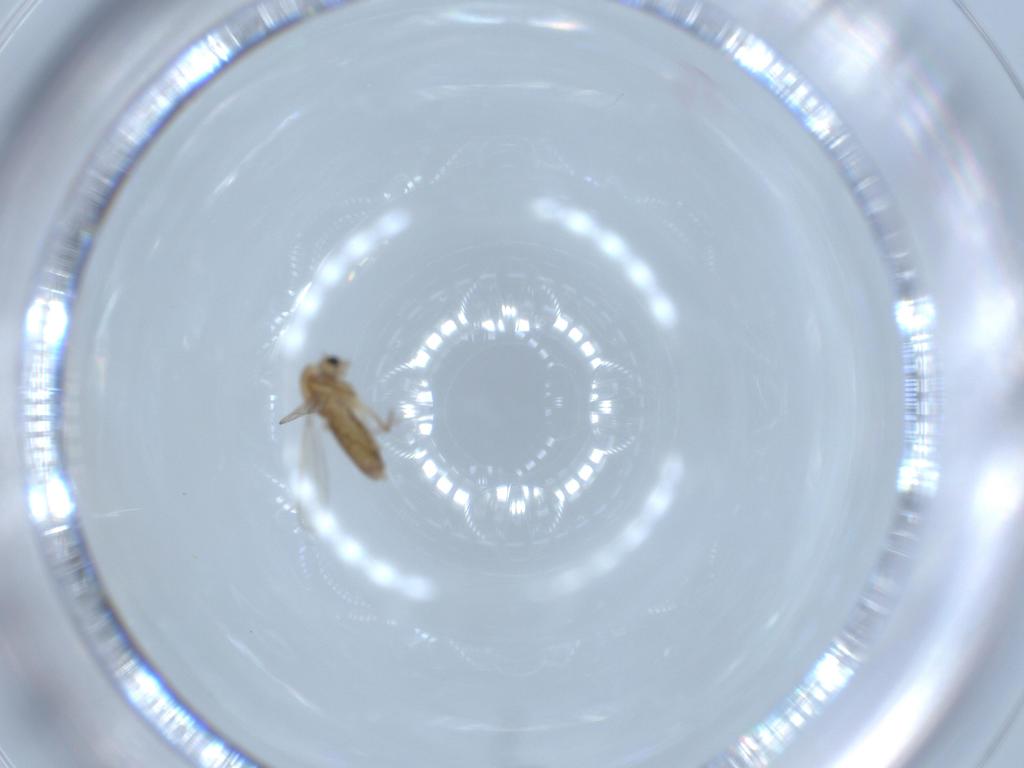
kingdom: Animalia
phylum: Arthropoda
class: Insecta
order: Diptera
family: Chironomidae
